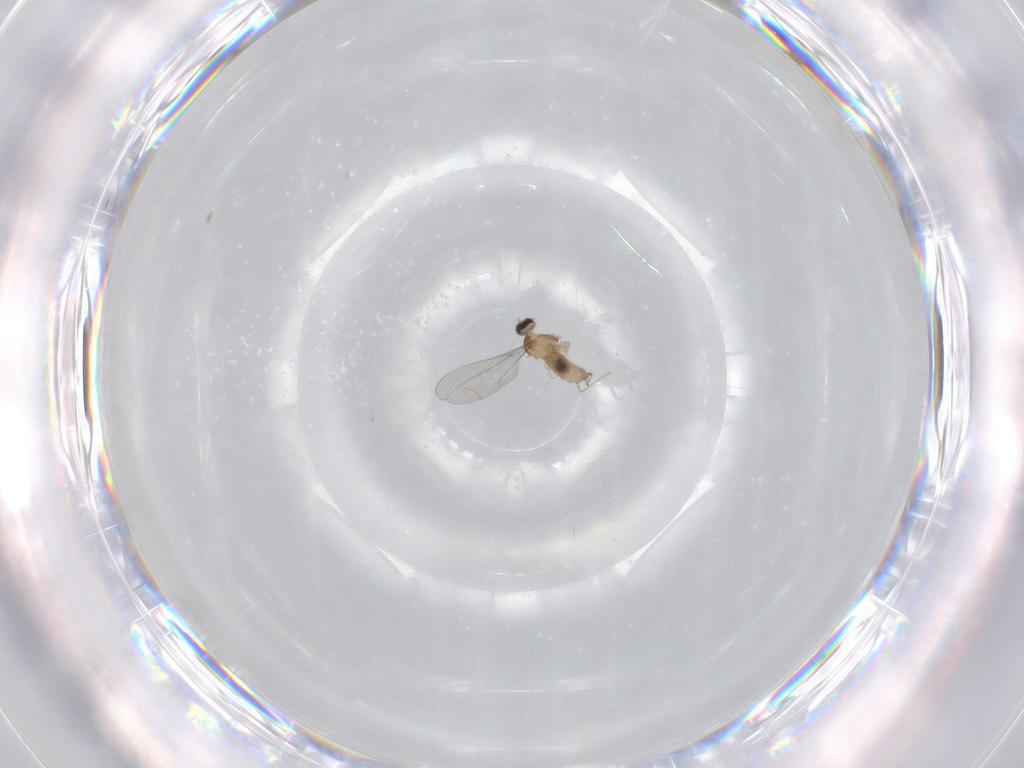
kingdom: Animalia
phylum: Arthropoda
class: Insecta
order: Diptera
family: Cecidomyiidae
